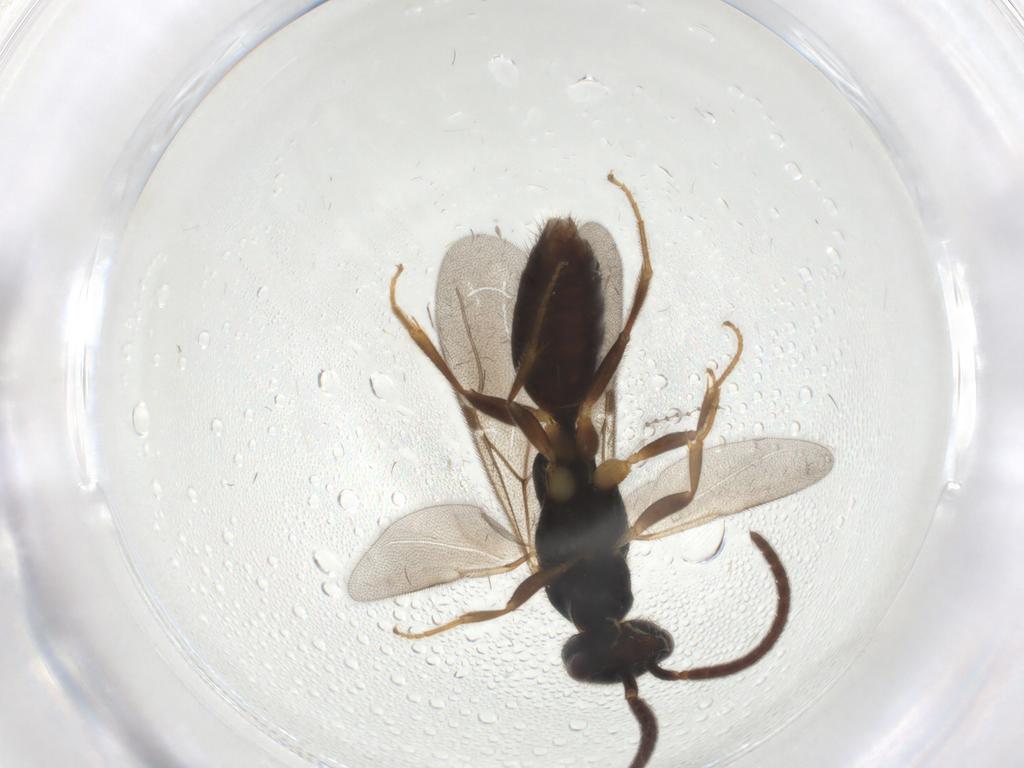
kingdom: Animalia
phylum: Arthropoda
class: Insecta
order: Hymenoptera
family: Bethylidae
